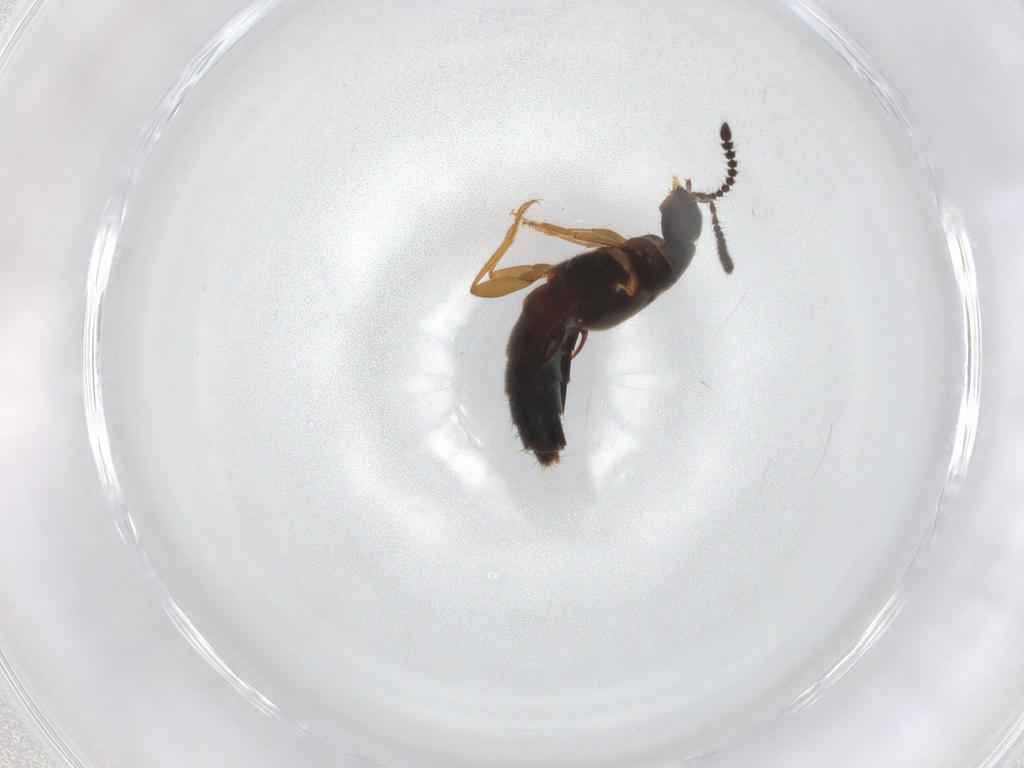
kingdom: Animalia
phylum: Arthropoda
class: Insecta
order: Coleoptera
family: Staphylinidae
